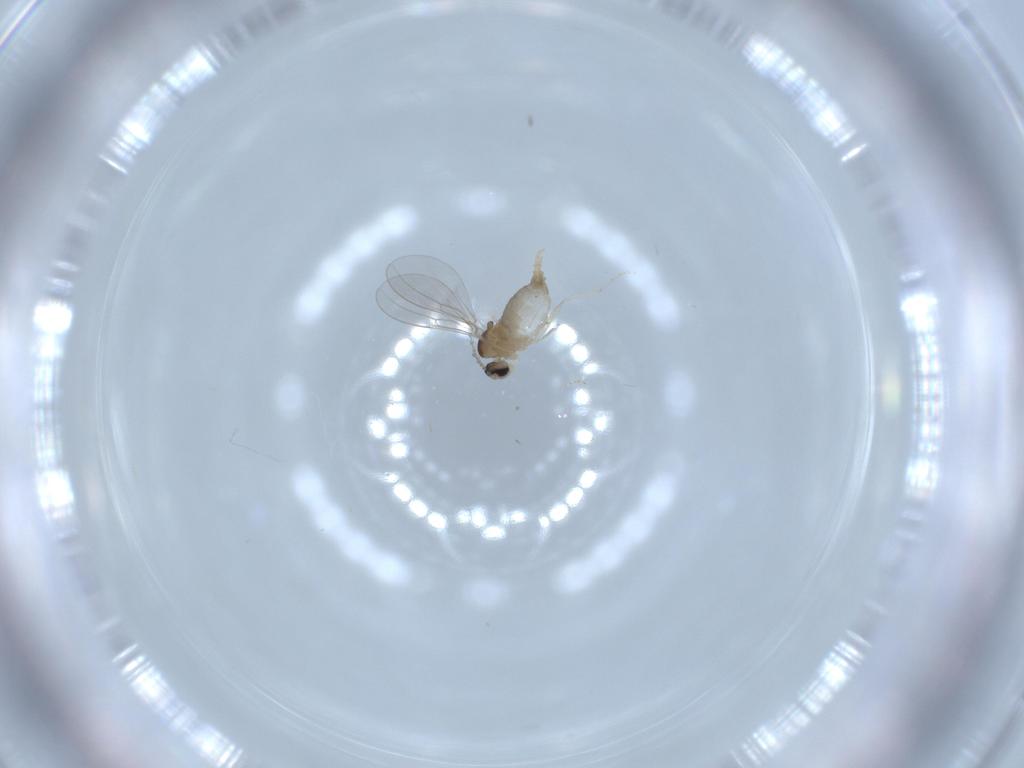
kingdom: Animalia
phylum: Arthropoda
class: Insecta
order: Diptera
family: Cecidomyiidae
